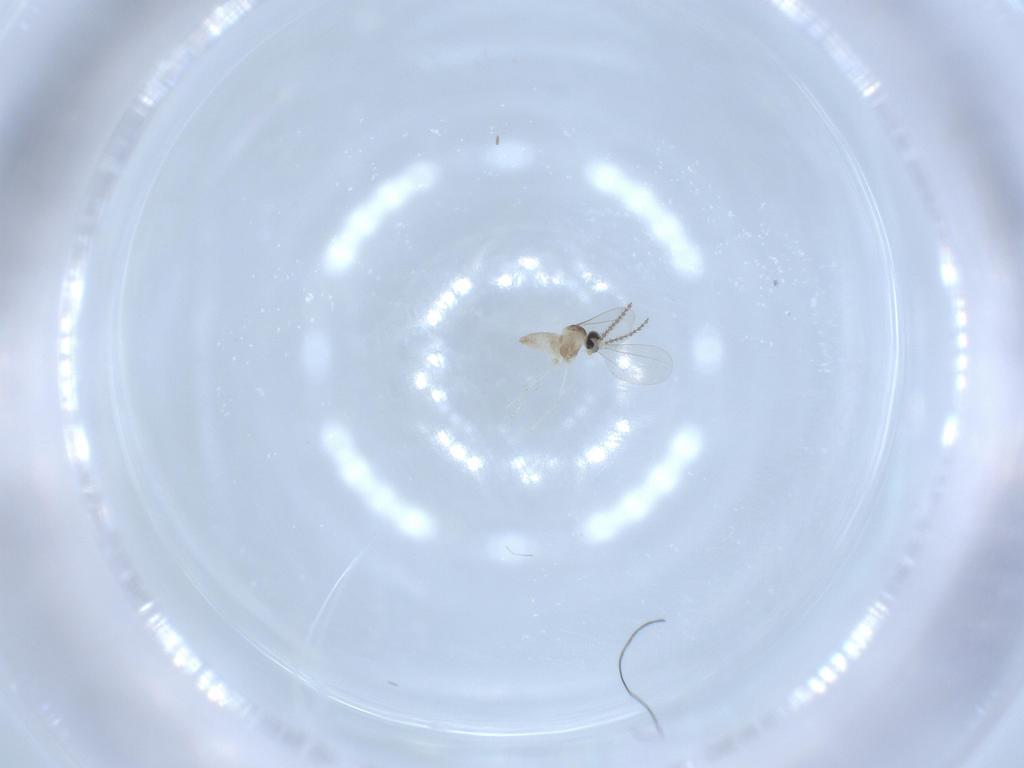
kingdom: Animalia
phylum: Arthropoda
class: Insecta
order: Diptera
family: Cecidomyiidae
